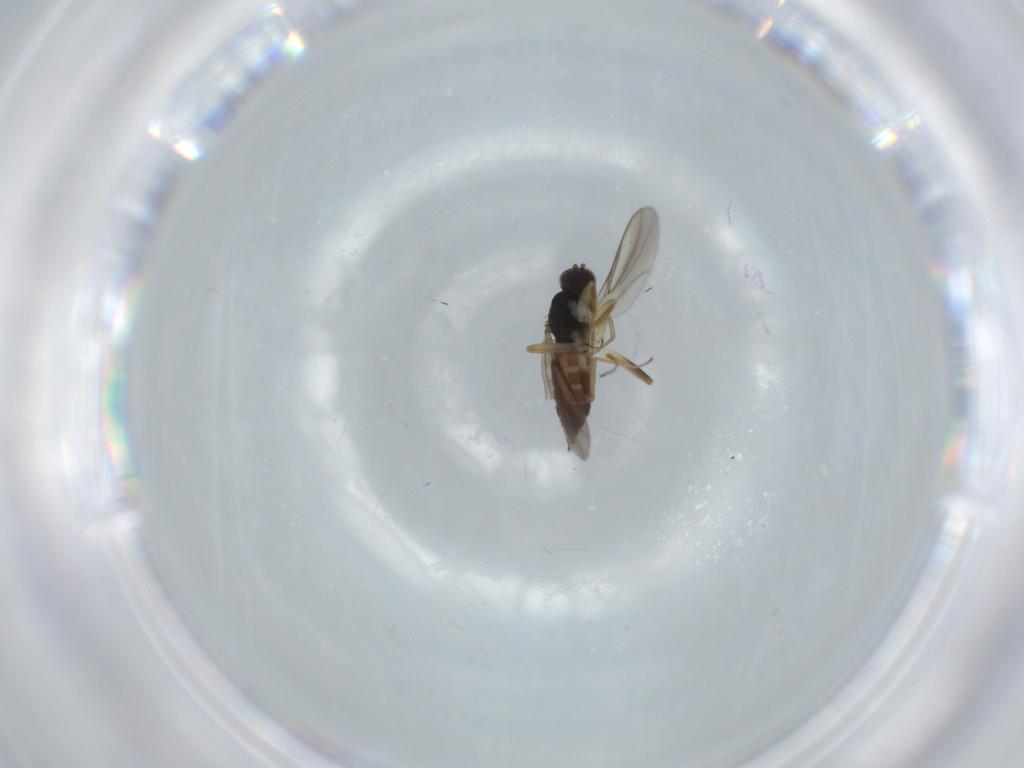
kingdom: Animalia
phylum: Arthropoda
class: Insecta
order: Diptera
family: Hybotidae
